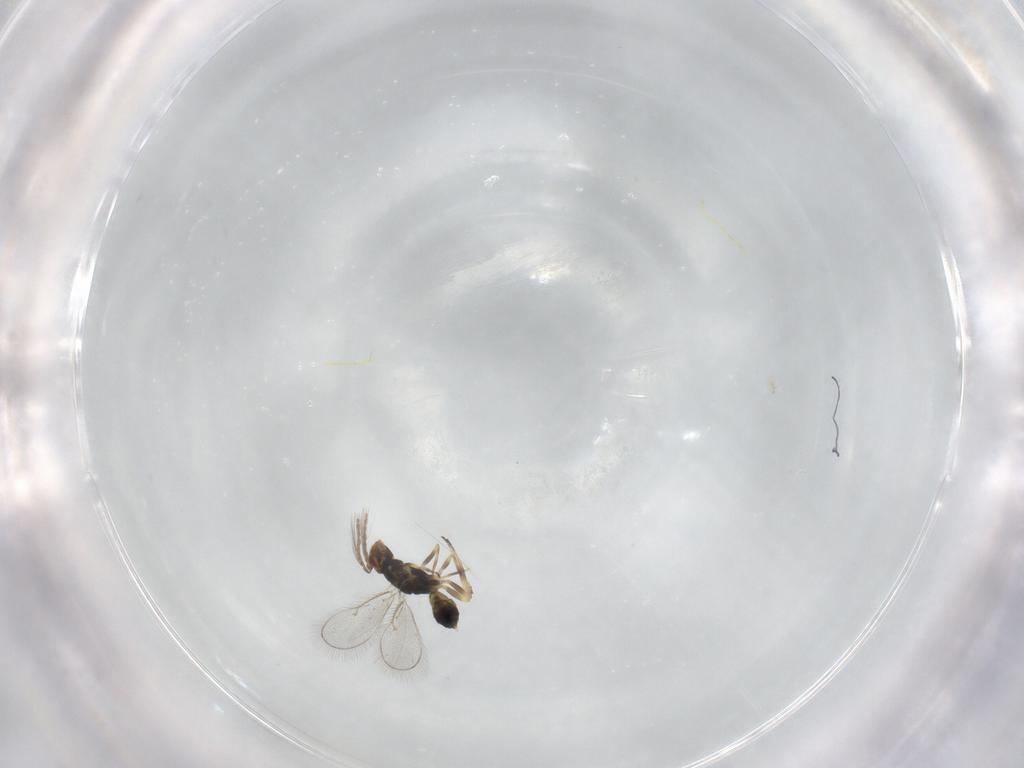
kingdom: Animalia
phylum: Arthropoda
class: Insecta
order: Hymenoptera
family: Eulophidae
